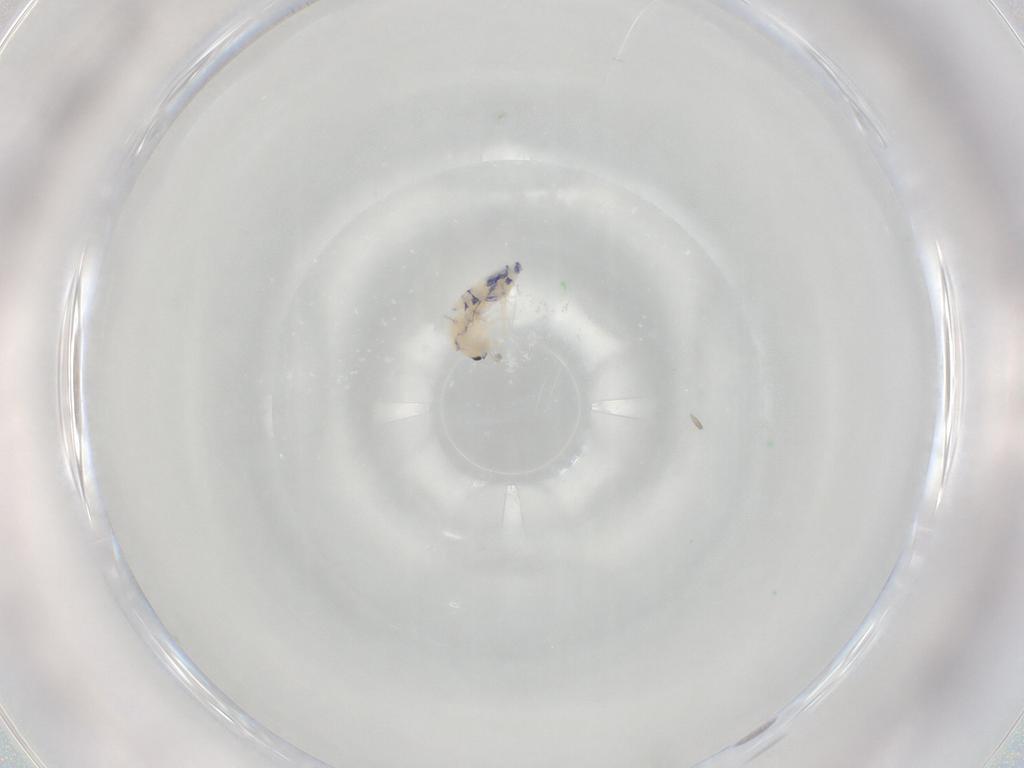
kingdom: Animalia
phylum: Arthropoda
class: Collembola
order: Entomobryomorpha
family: Entomobryidae
